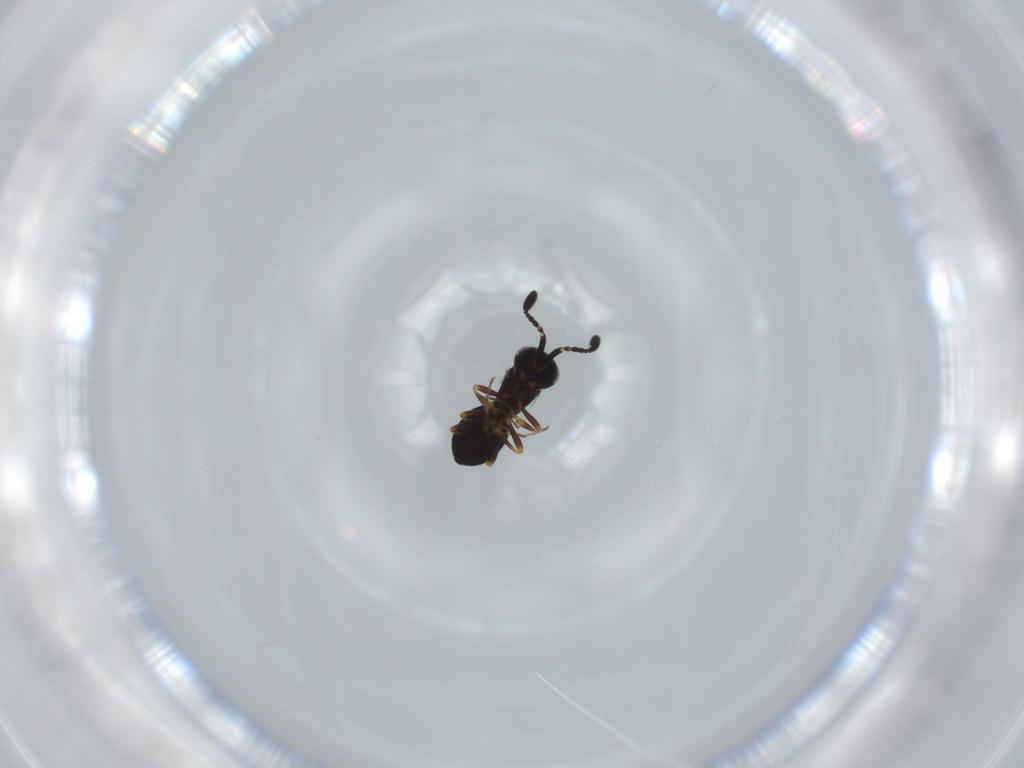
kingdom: Animalia
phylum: Arthropoda
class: Insecta
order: Hymenoptera
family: Scelionidae
